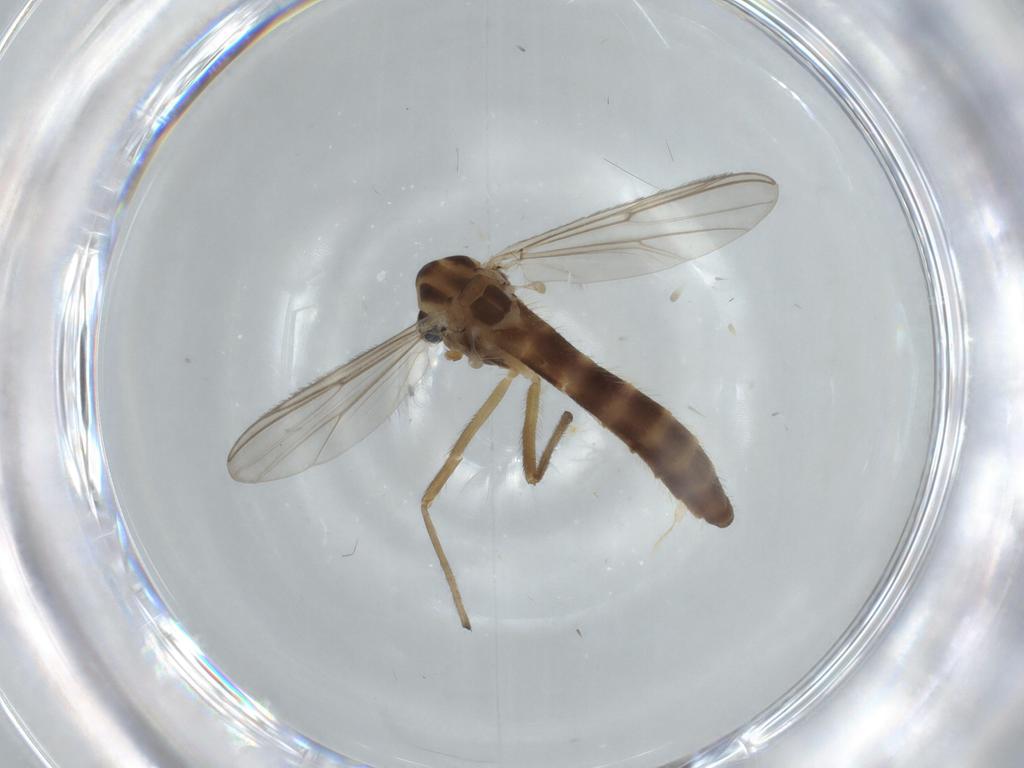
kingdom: Animalia
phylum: Arthropoda
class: Insecta
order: Diptera
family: Chironomidae
